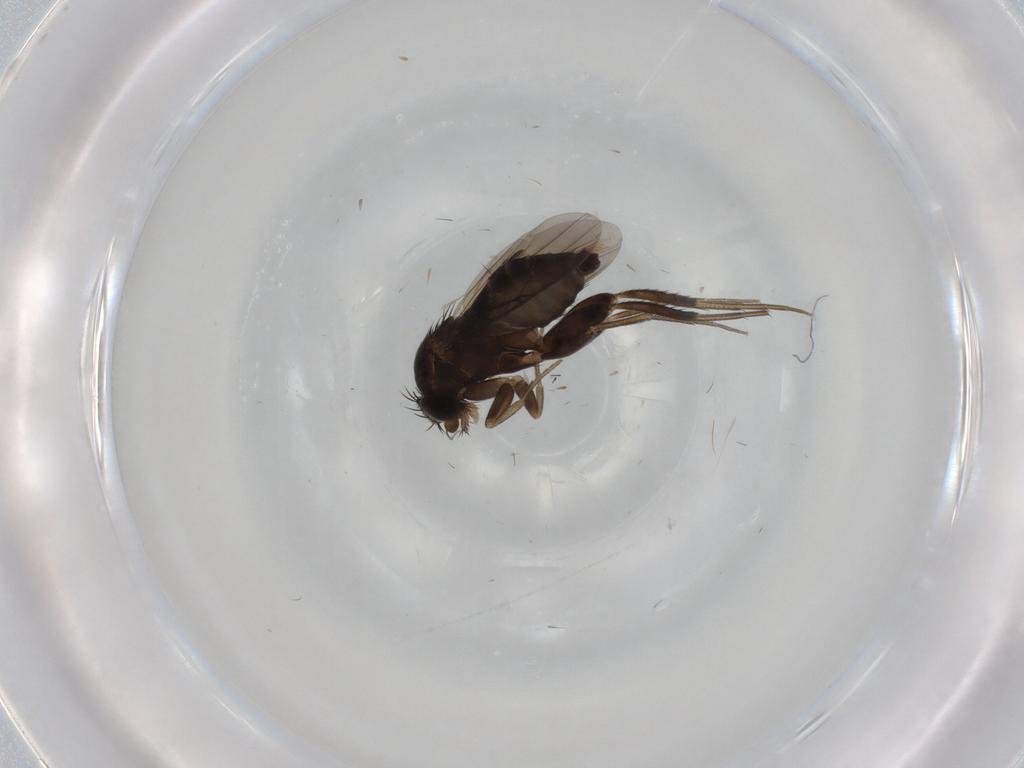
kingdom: Animalia
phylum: Arthropoda
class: Insecta
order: Diptera
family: Phoridae
